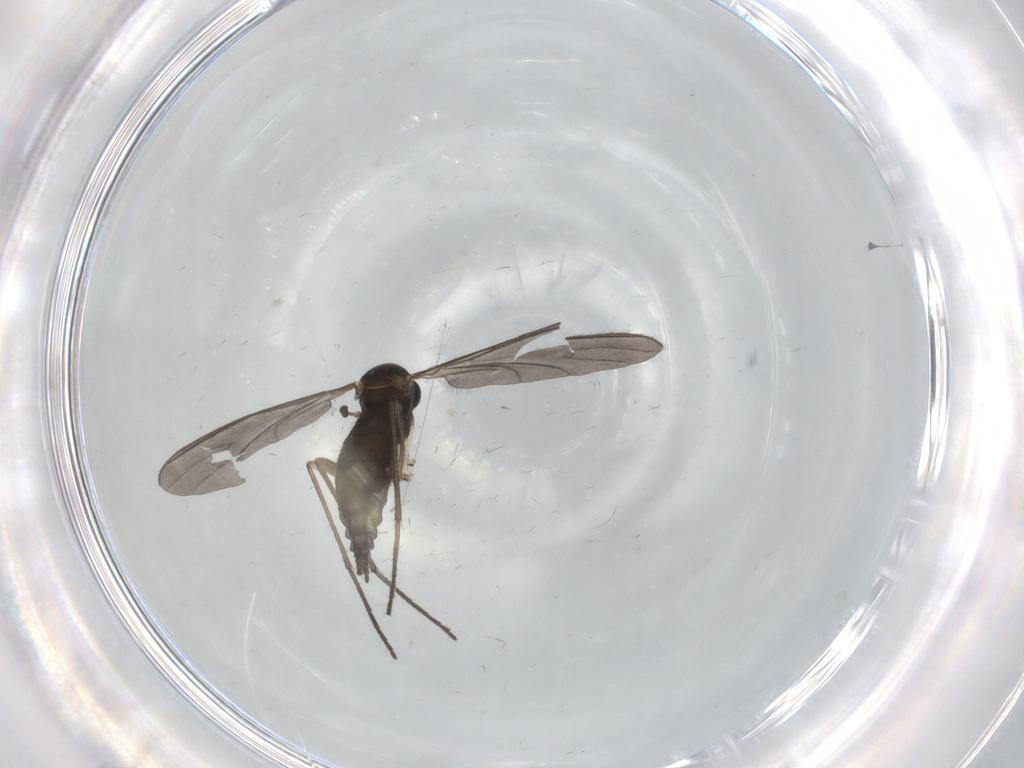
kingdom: Animalia
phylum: Arthropoda
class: Insecta
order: Diptera
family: Sciaridae
